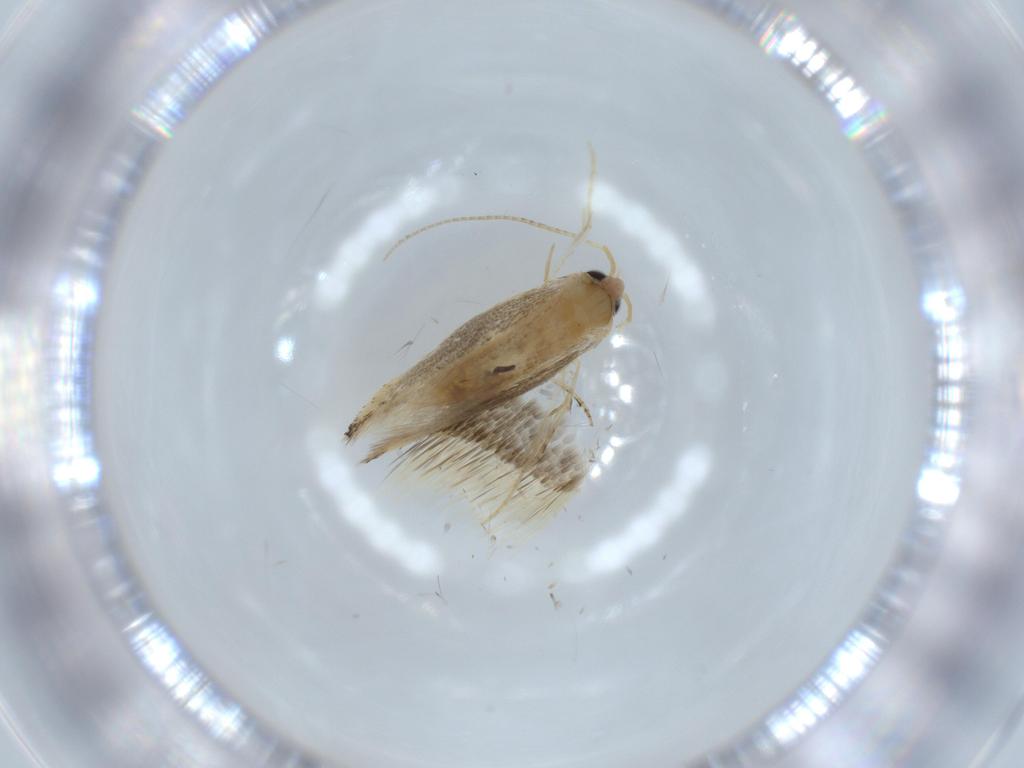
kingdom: Animalia
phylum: Arthropoda
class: Insecta
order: Lepidoptera
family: Bucculatricidae
